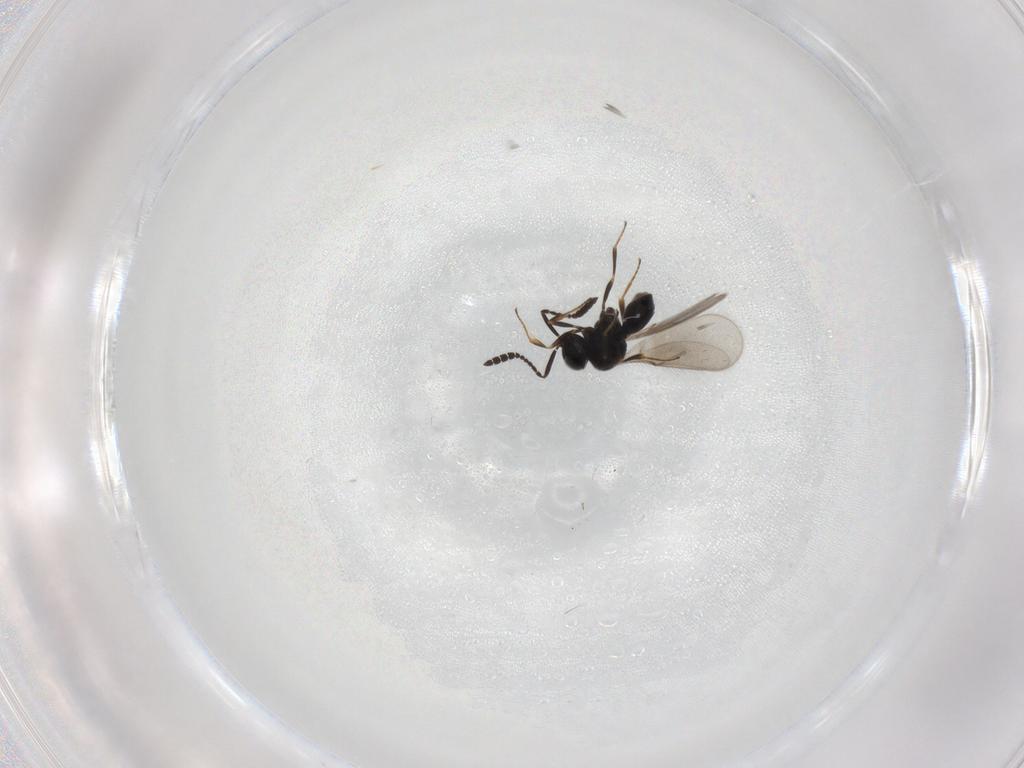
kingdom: Animalia
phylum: Arthropoda
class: Insecta
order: Hymenoptera
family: Scelionidae
